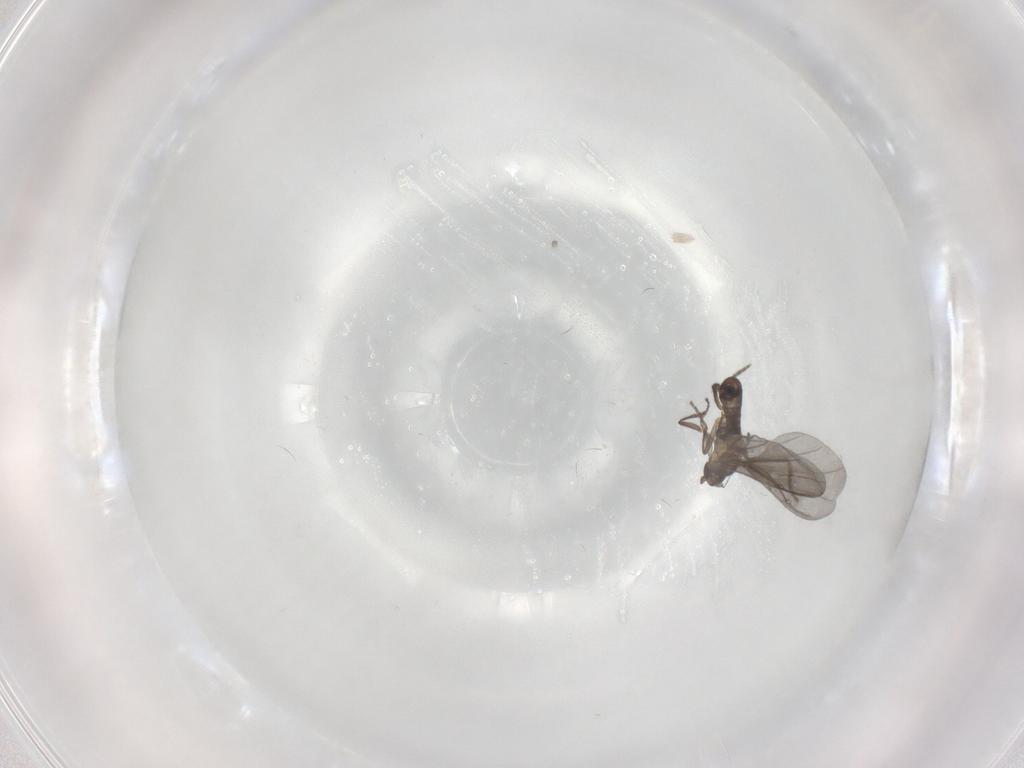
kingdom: Animalia
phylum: Arthropoda
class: Insecta
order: Diptera
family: Phoridae
